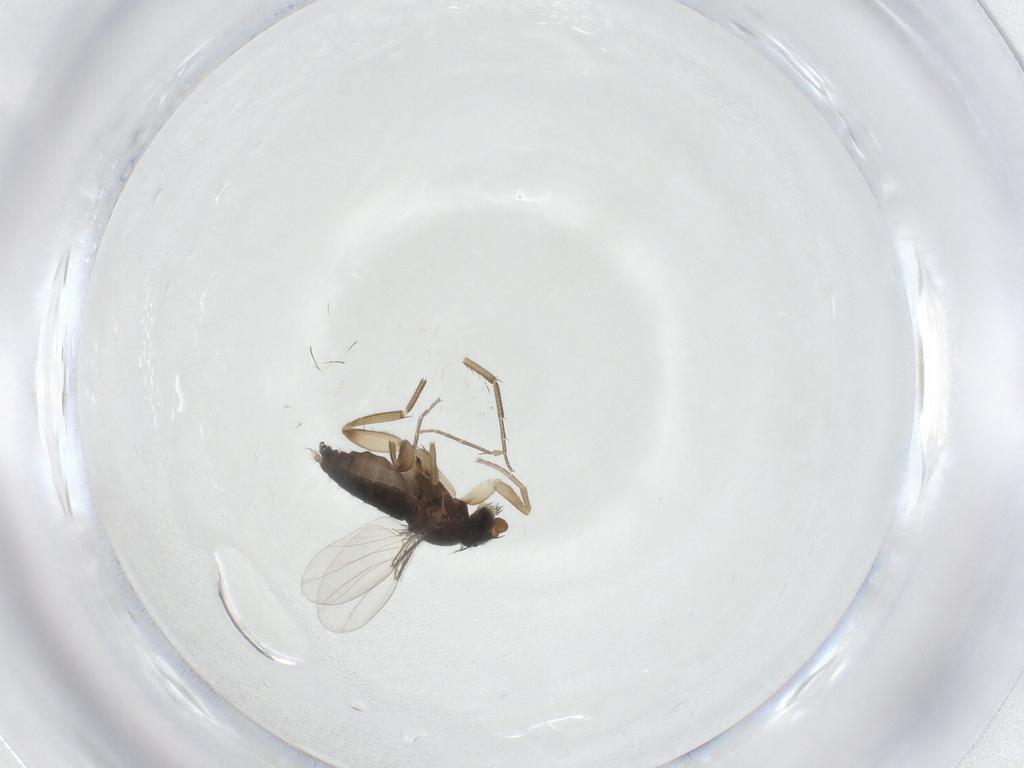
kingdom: Animalia
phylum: Arthropoda
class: Insecta
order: Diptera
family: Phoridae
